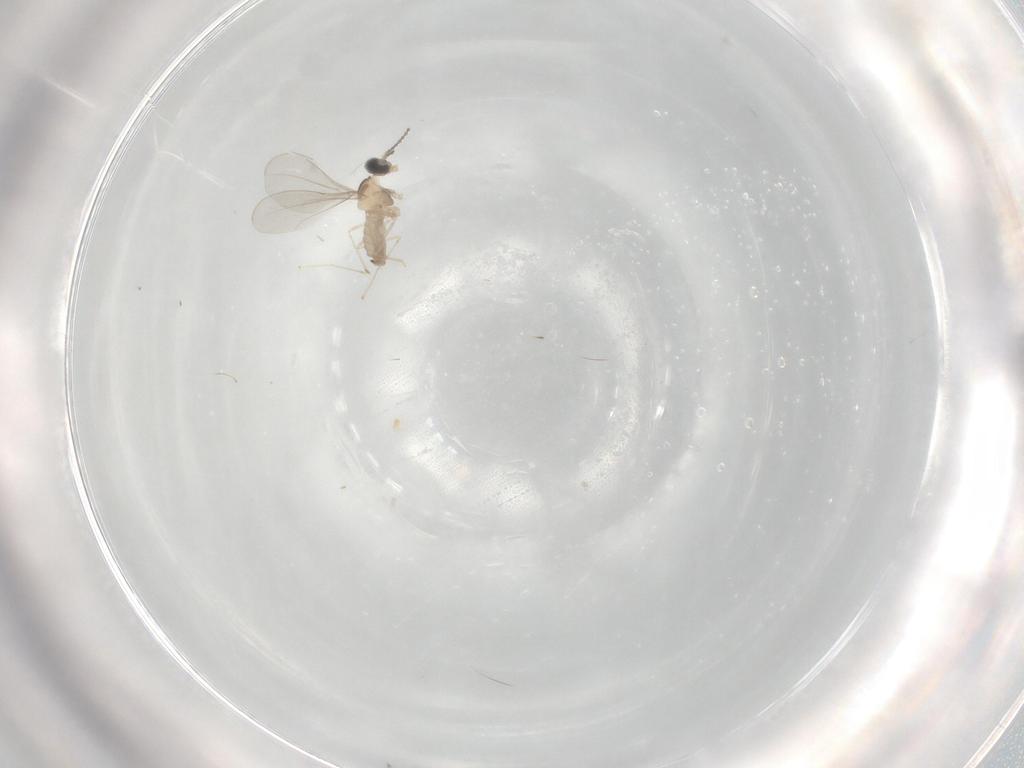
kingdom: Animalia
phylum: Arthropoda
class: Insecta
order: Diptera
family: Cecidomyiidae
